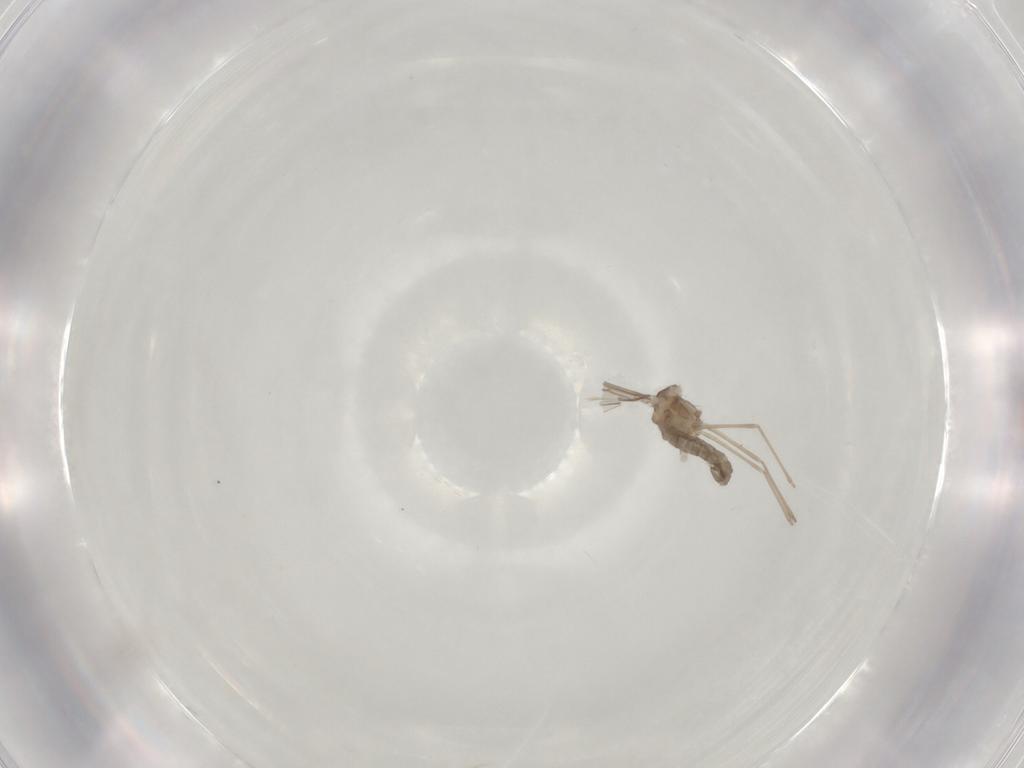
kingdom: Animalia
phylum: Arthropoda
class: Insecta
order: Diptera
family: Cecidomyiidae
